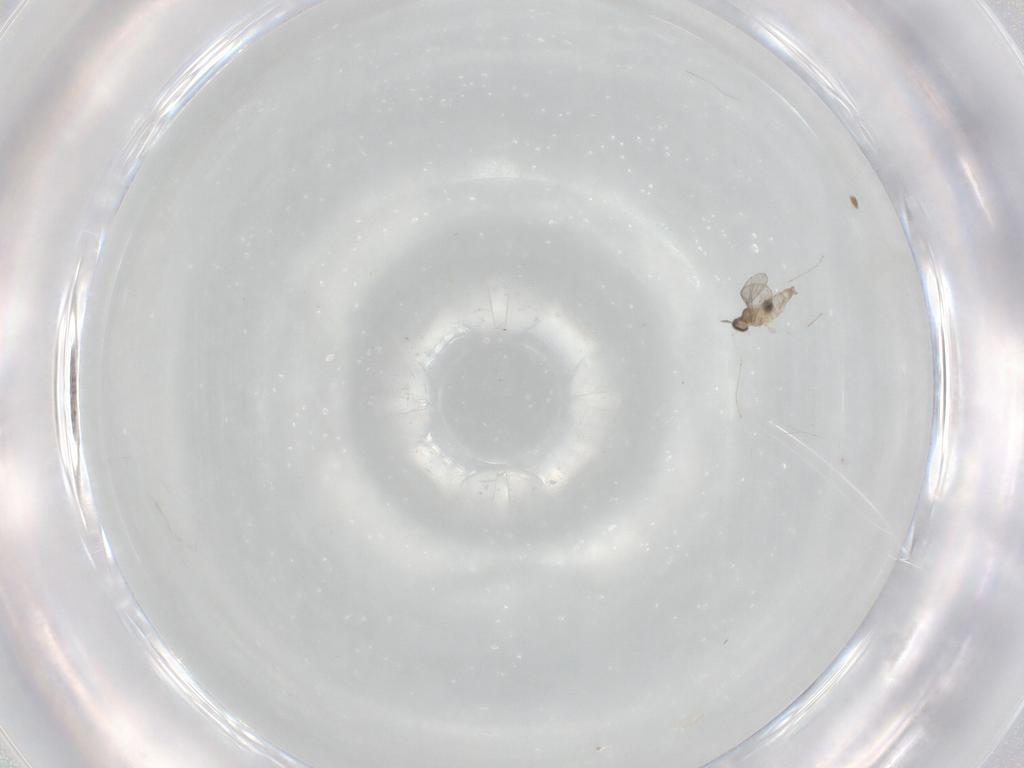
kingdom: Animalia
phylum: Arthropoda
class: Insecta
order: Diptera
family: Cecidomyiidae
